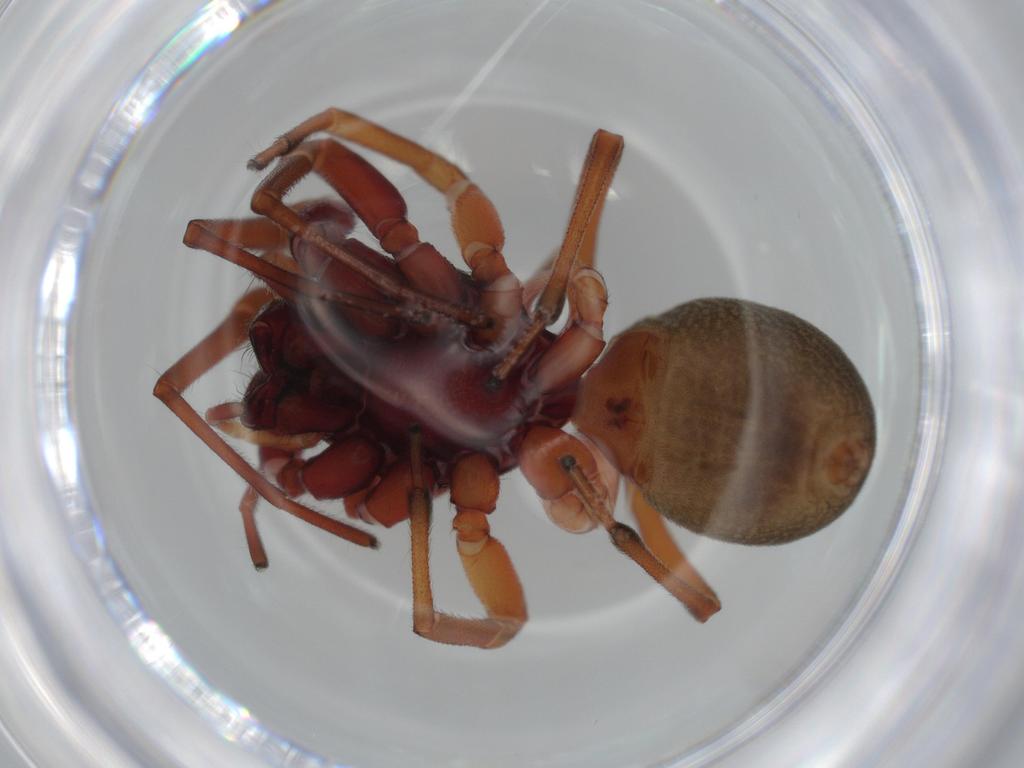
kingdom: Animalia
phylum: Arthropoda
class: Arachnida
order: Araneae
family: Trachelidae
